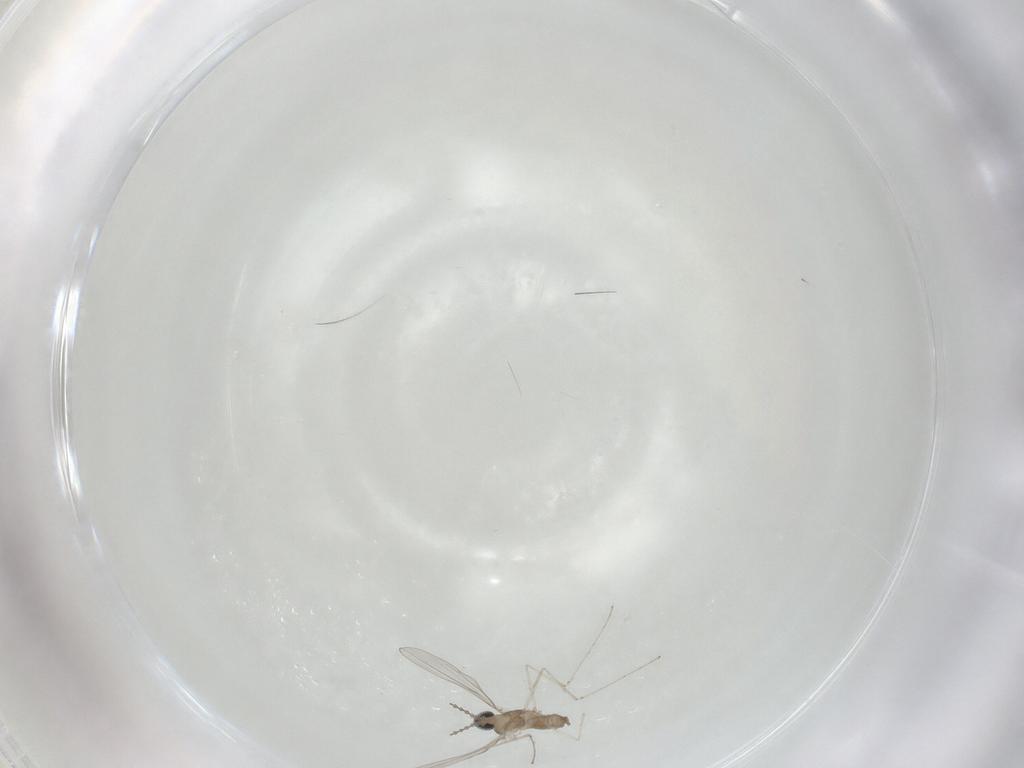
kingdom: Animalia
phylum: Arthropoda
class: Insecta
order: Diptera
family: Cecidomyiidae
